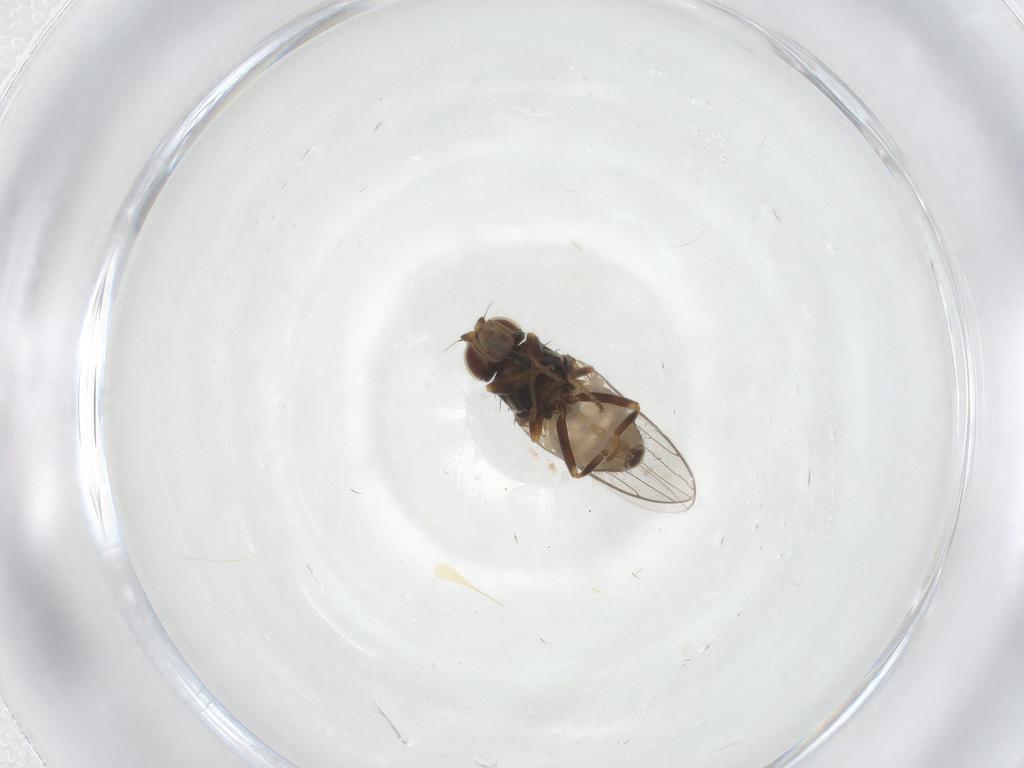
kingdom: Animalia
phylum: Arthropoda
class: Insecta
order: Diptera
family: Chloropidae
